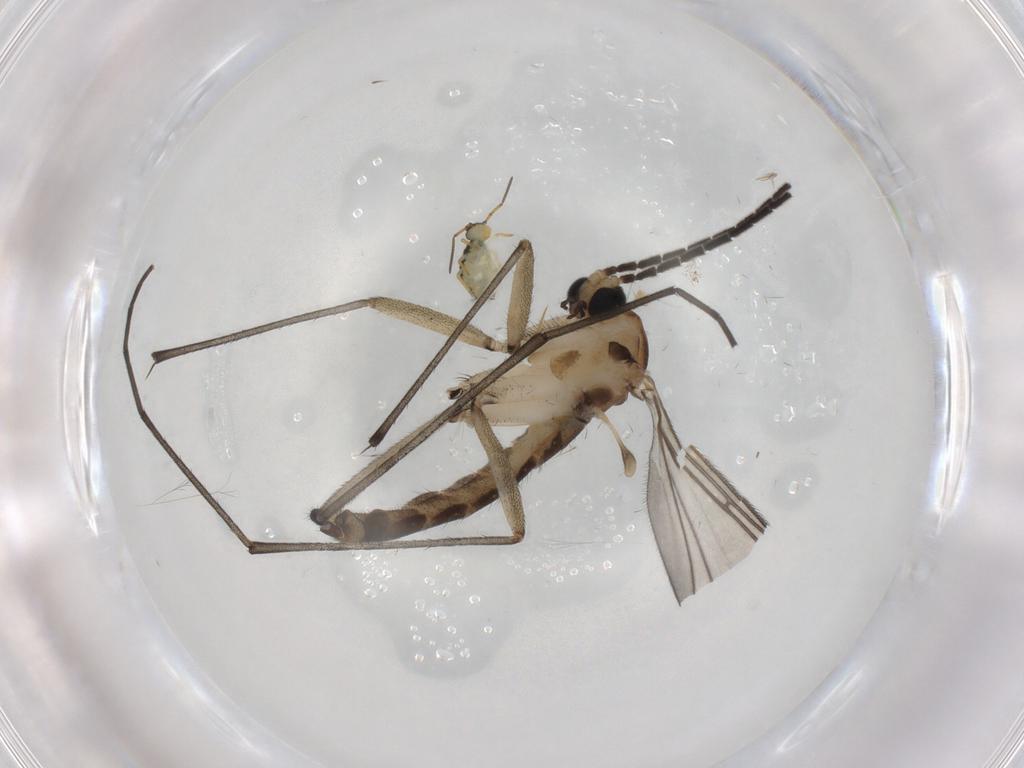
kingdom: Animalia
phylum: Arthropoda
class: Insecta
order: Diptera
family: Sciaridae
